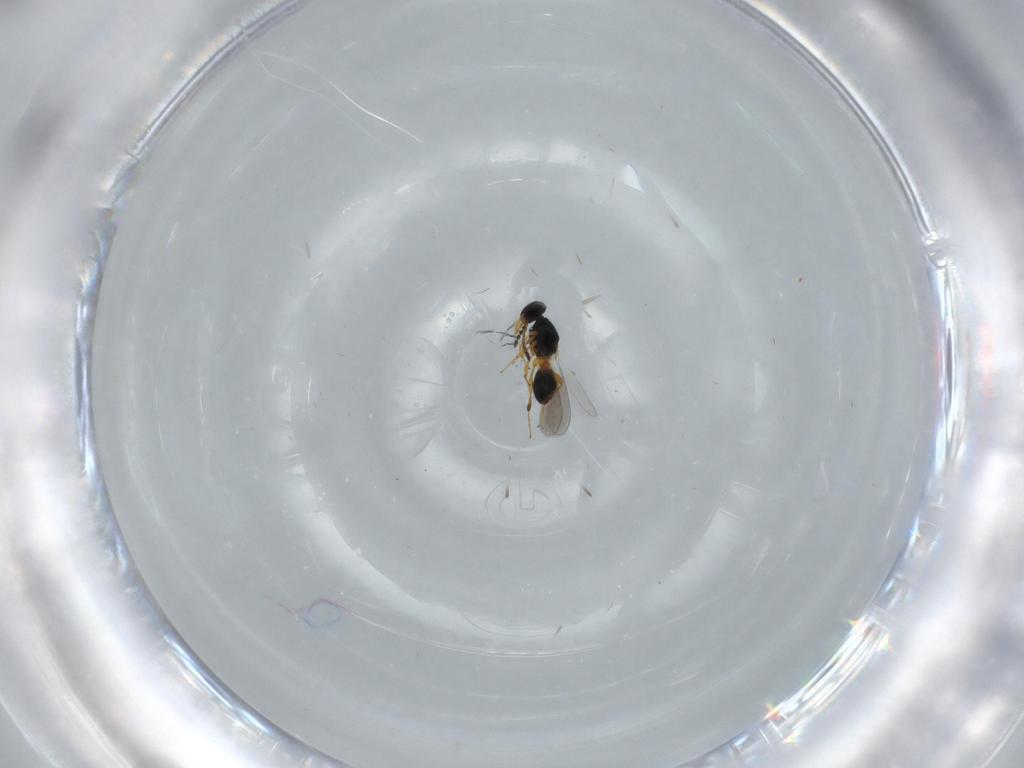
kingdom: Animalia
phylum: Arthropoda
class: Insecta
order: Hymenoptera
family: Platygastridae
